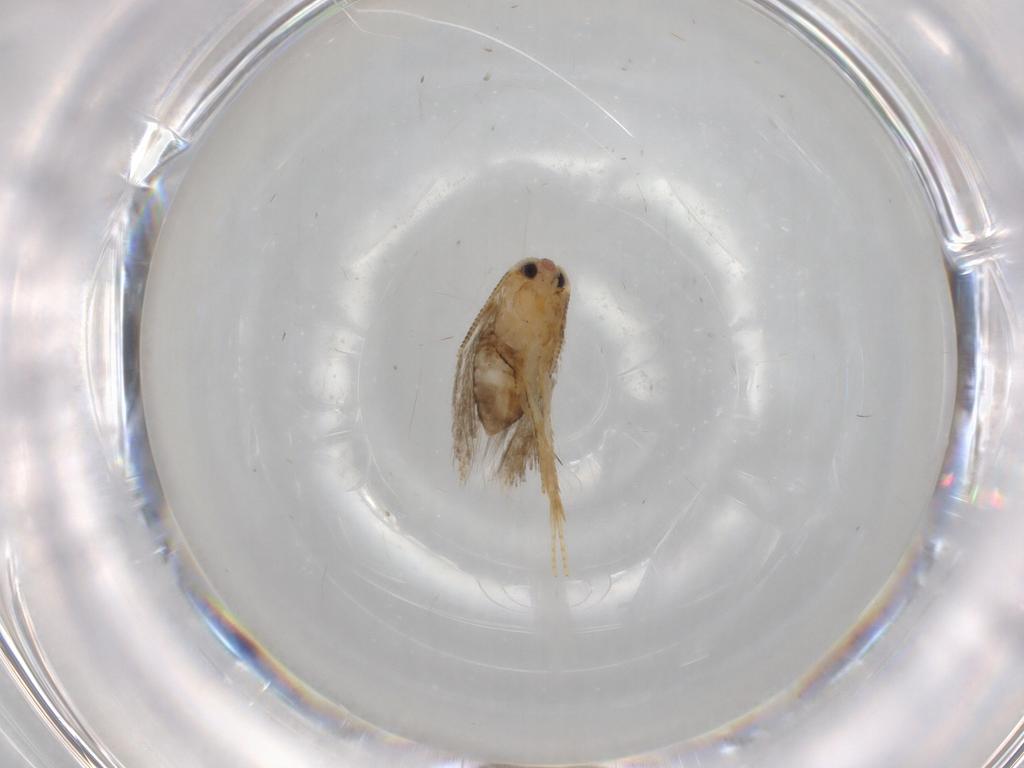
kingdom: Animalia
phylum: Arthropoda
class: Insecta
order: Lepidoptera
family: Nepticulidae
